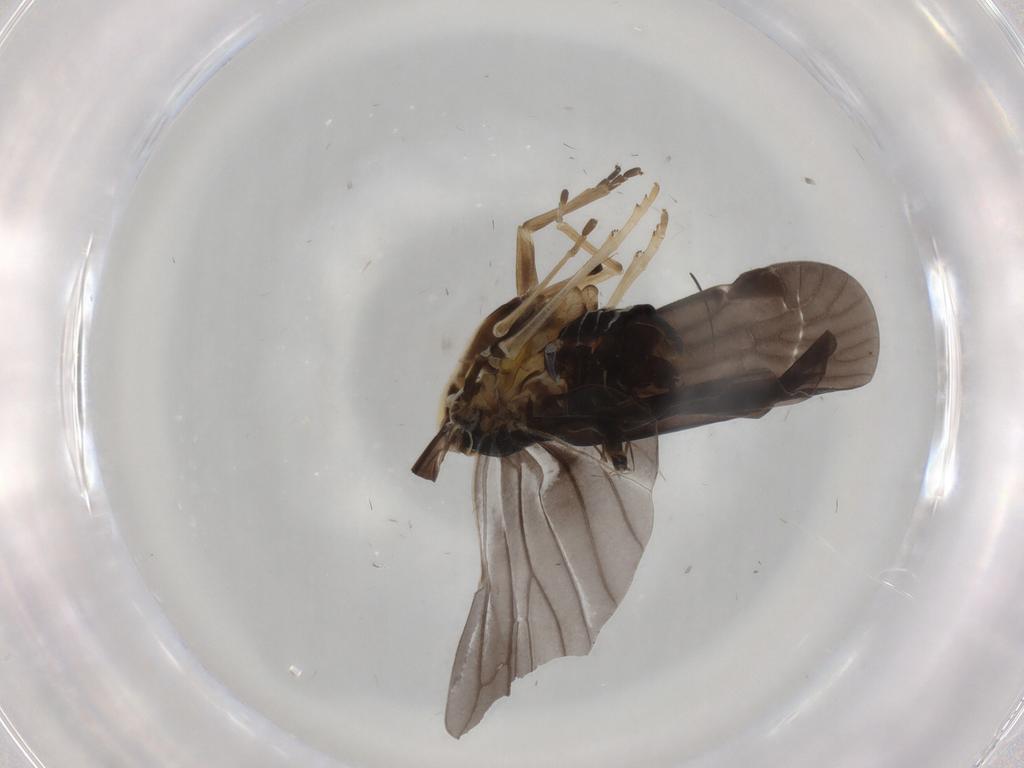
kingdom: Animalia
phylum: Arthropoda
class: Insecta
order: Hemiptera
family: Derbidae
